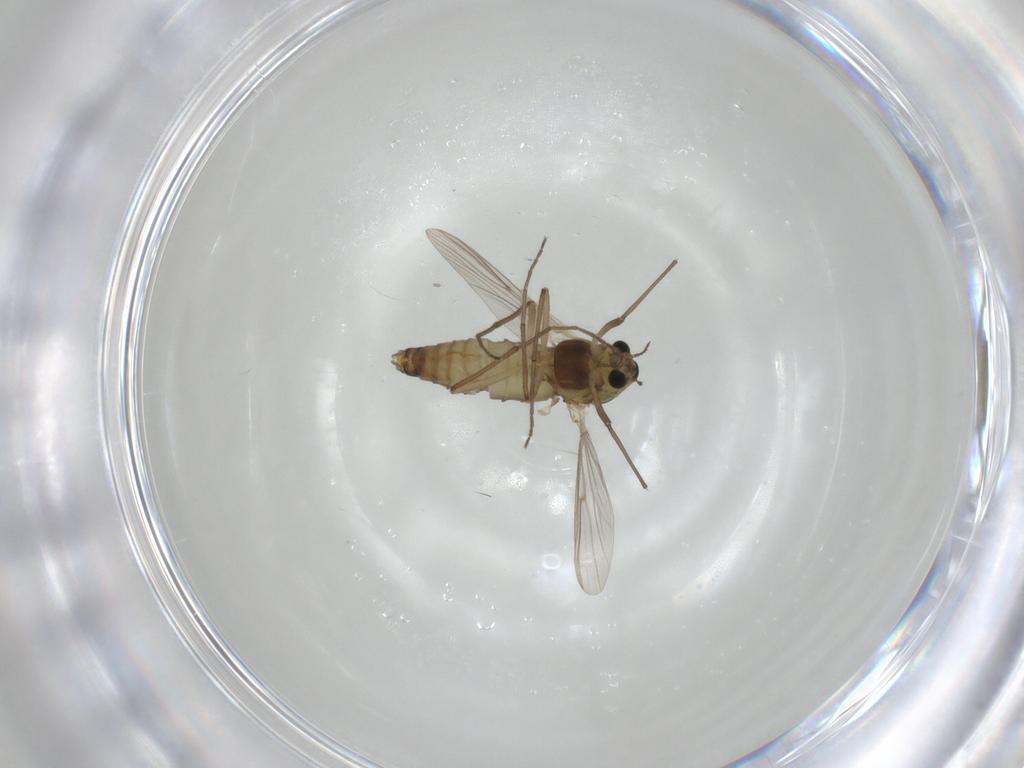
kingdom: Animalia
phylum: Arthropoda
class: Insecta
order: Diptera
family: Chironomidae
